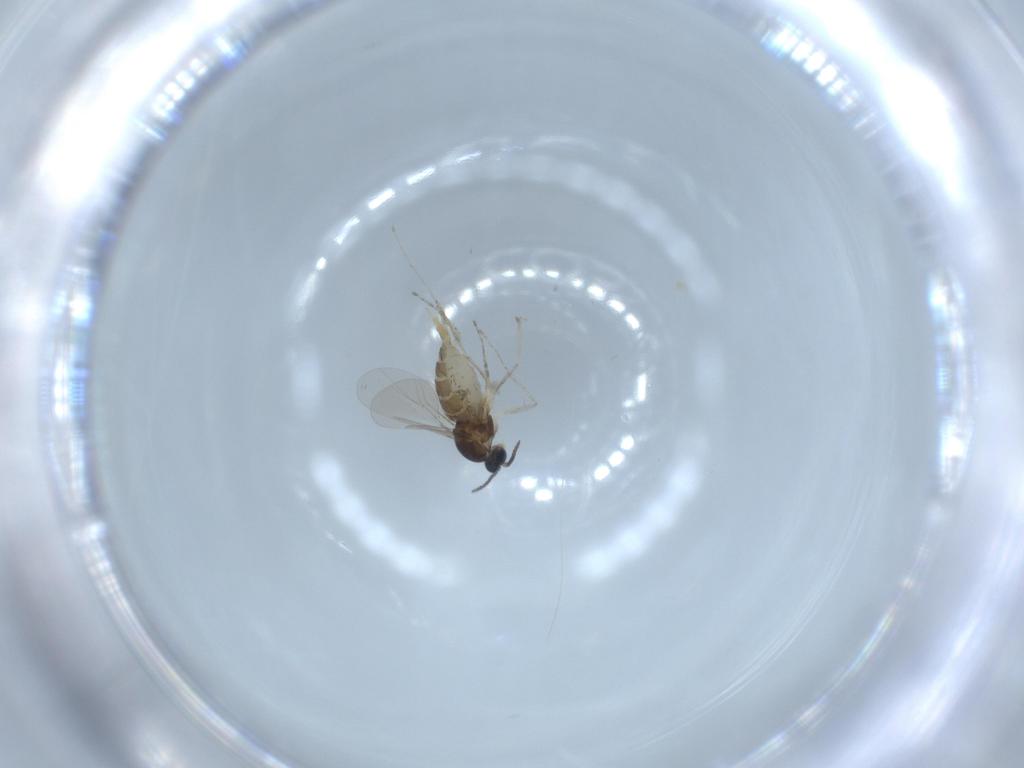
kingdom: Animalia
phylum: Arthropoda
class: Insecta
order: Diptera
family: Cecidomyiidae
